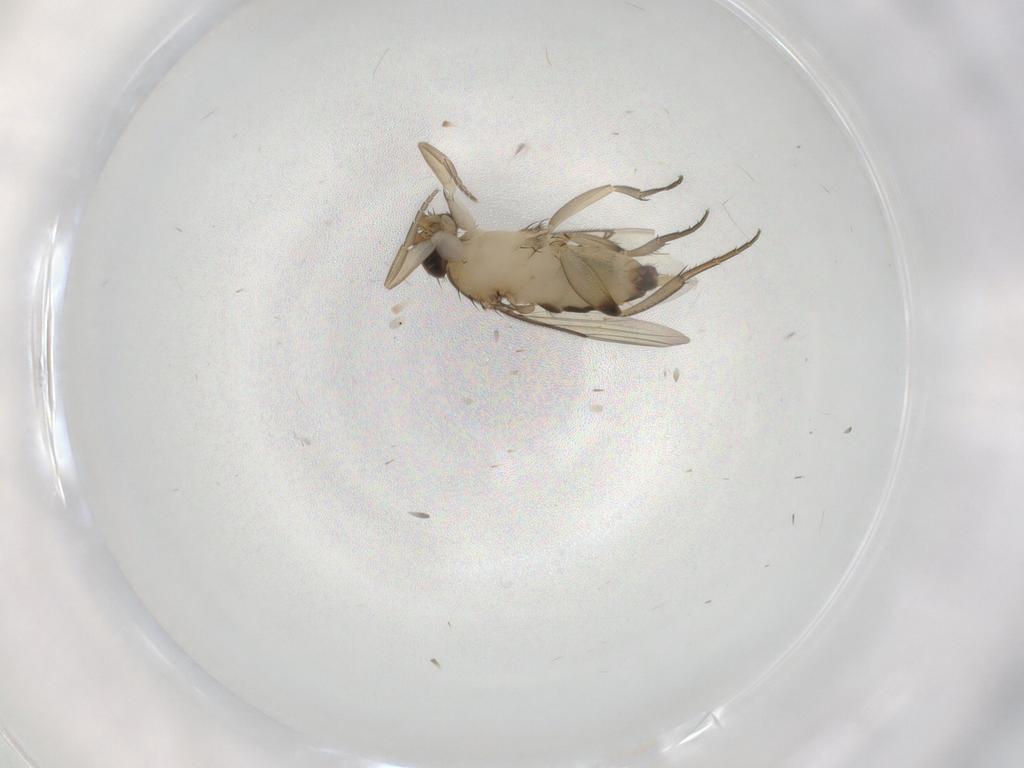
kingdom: Animalia
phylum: Arthropoda
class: Insecta
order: Diptera
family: Phoridae
